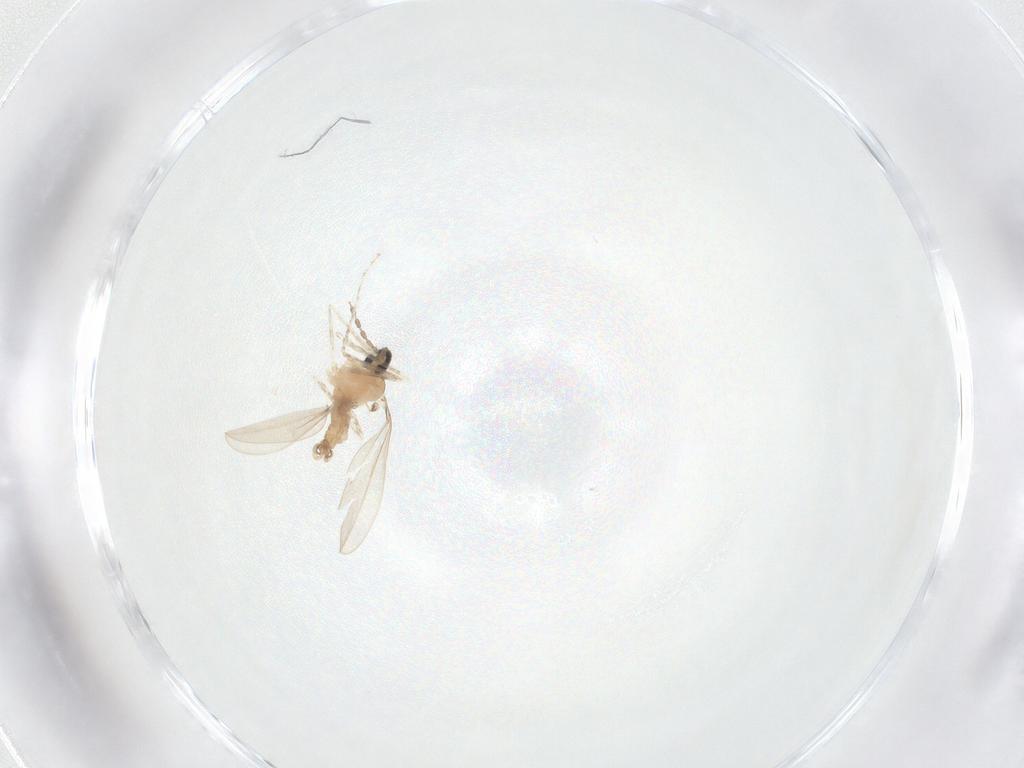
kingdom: Animalia
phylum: Arthropoda
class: Insecta
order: Diptera
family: Cecidomyiidae
